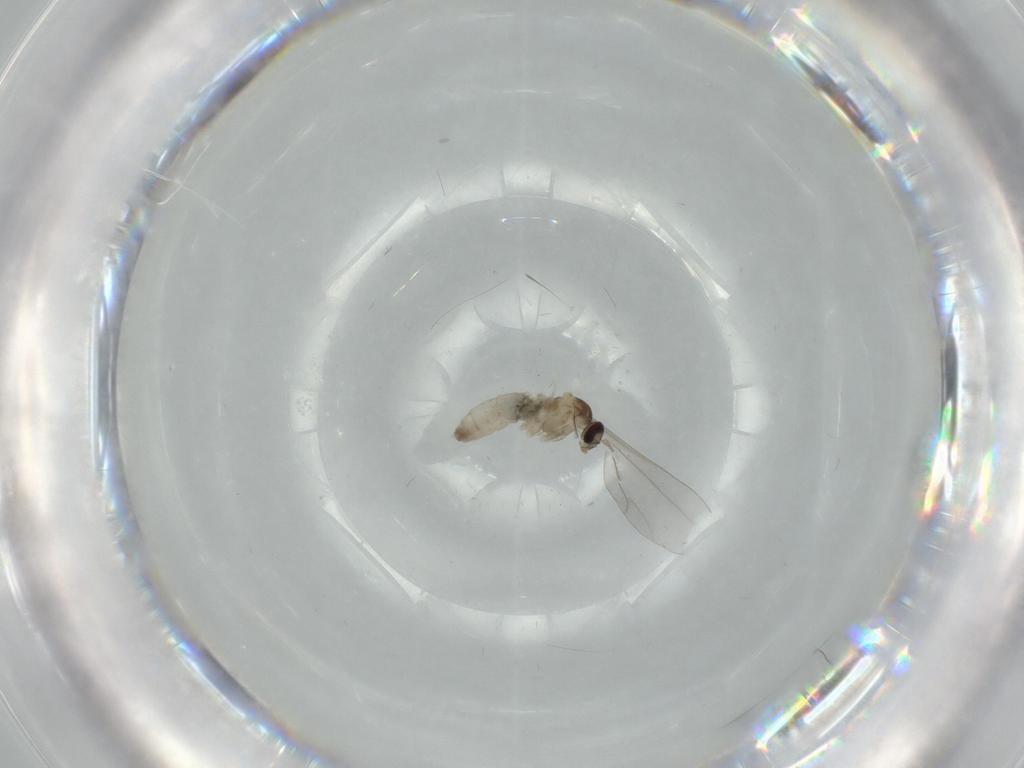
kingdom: Animalia
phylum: Arthropoda
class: Insecta
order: Diptera
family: Cecidomyiidae
